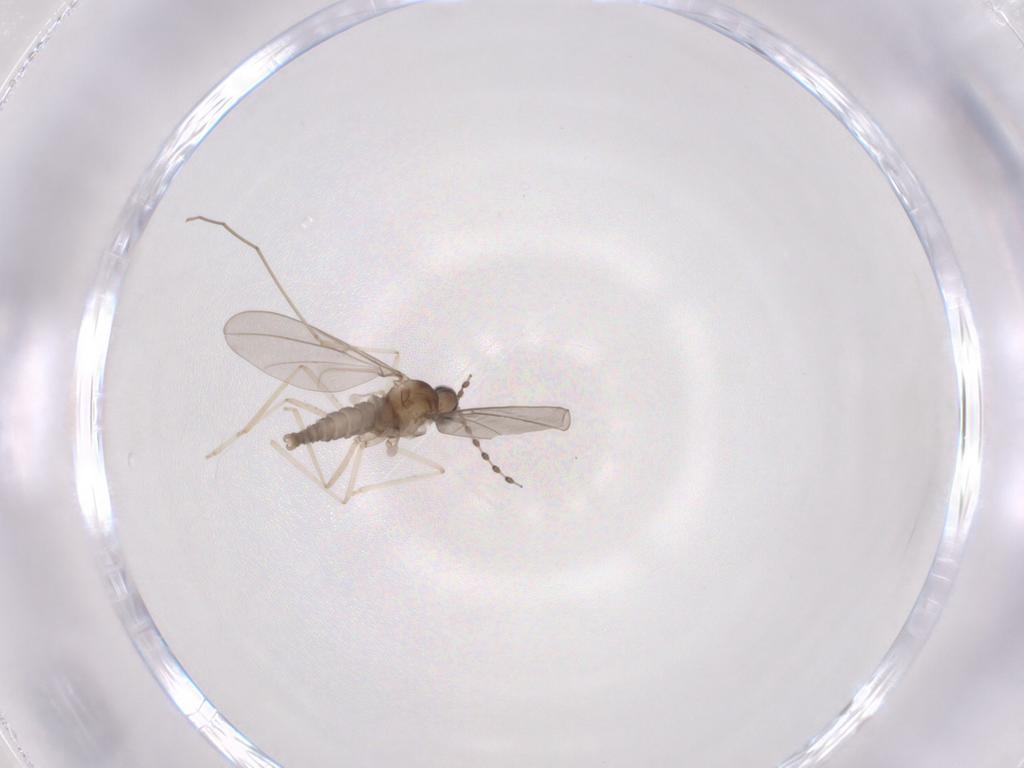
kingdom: Animalia
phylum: Arthropoda
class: Insecta
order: Diptera
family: Cecidomyiidae
